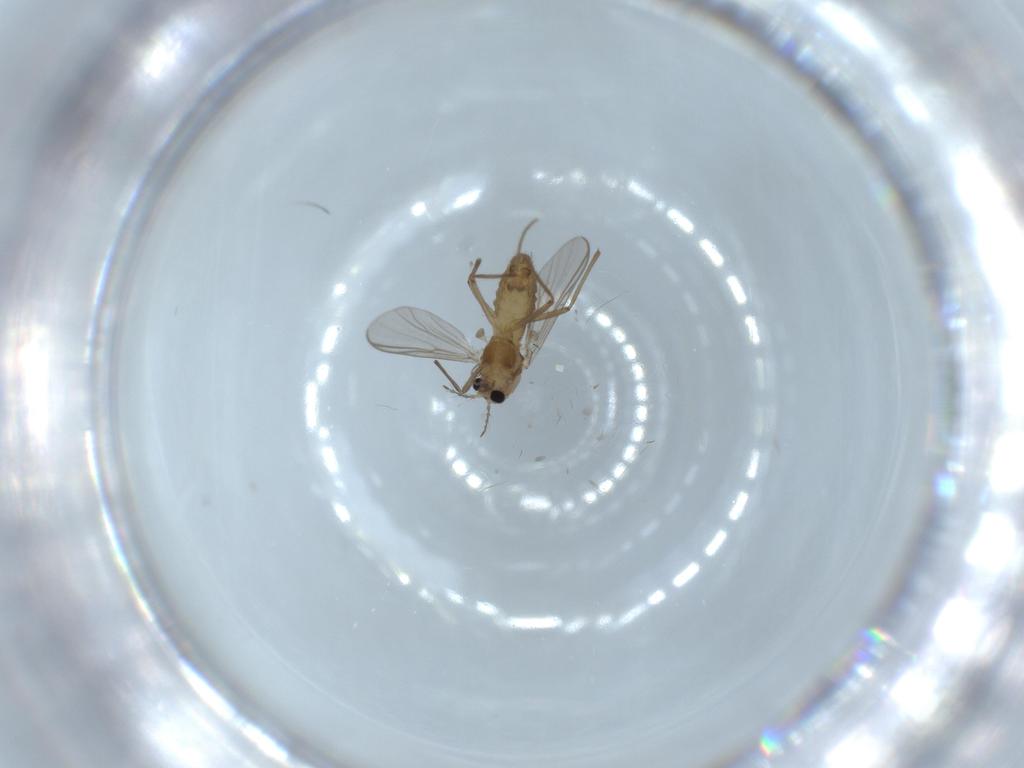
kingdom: Animalia
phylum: Arthropoda
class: Insecta
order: Diptera
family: Chironomidae
